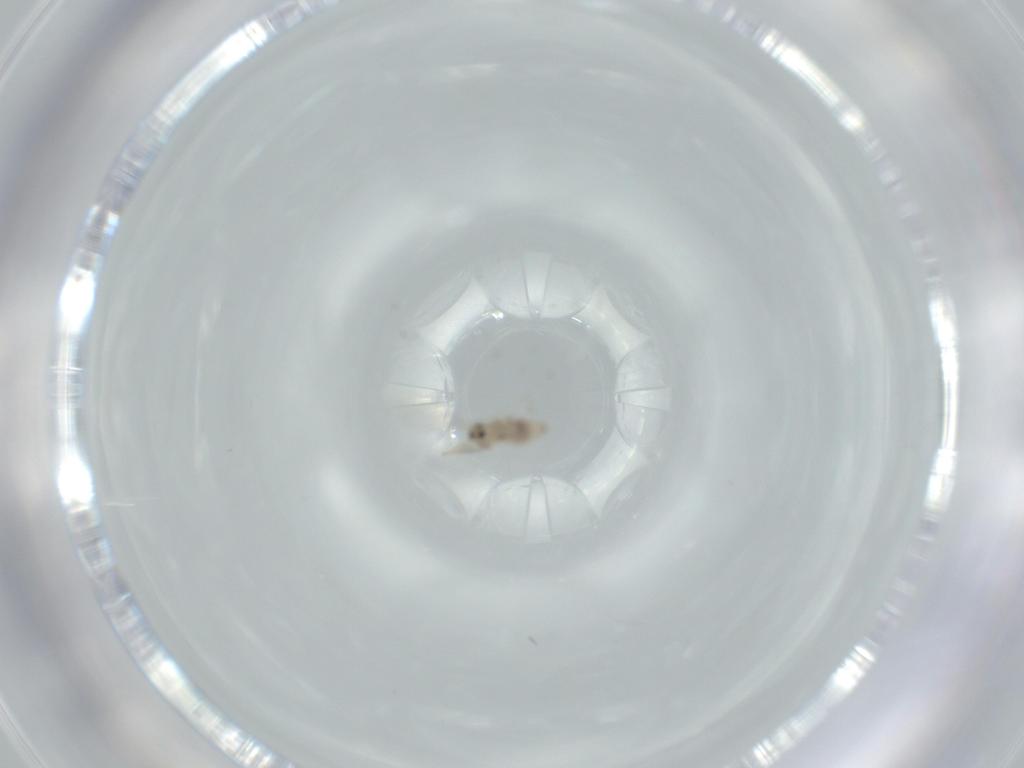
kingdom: Animalia
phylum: Arthropoda
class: Insecta
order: Diptera
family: Cecidomyiidae
